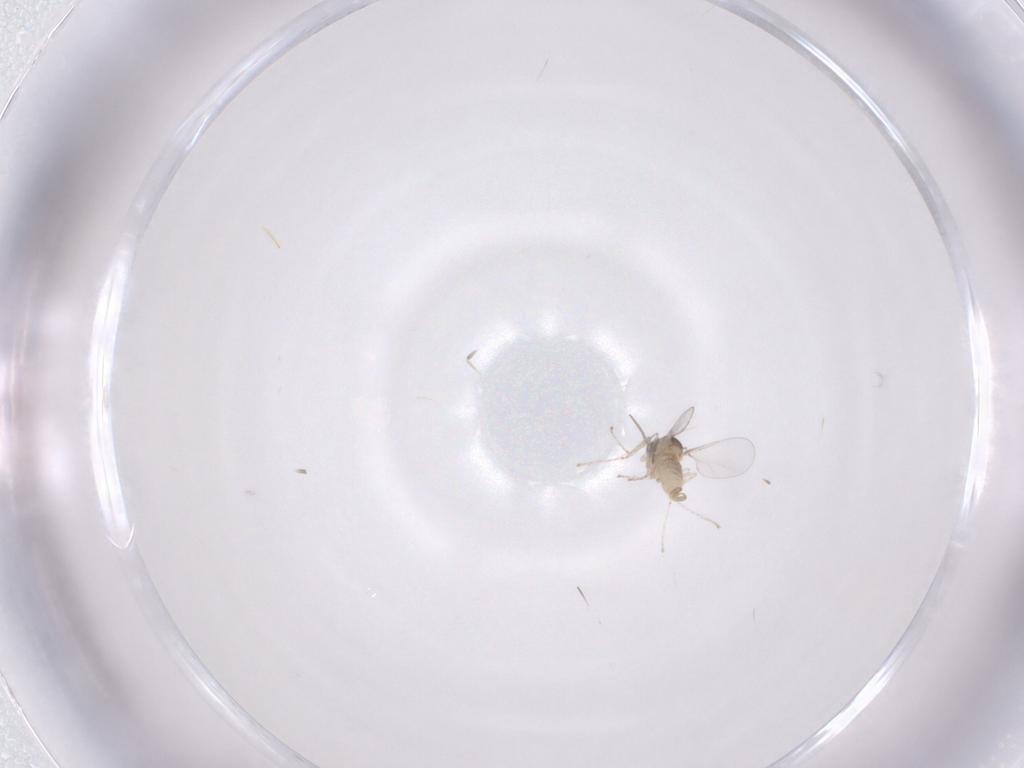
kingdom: Animalia
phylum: Arthropoda
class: Insecta
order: Diptera
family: Cecidomyiidae
